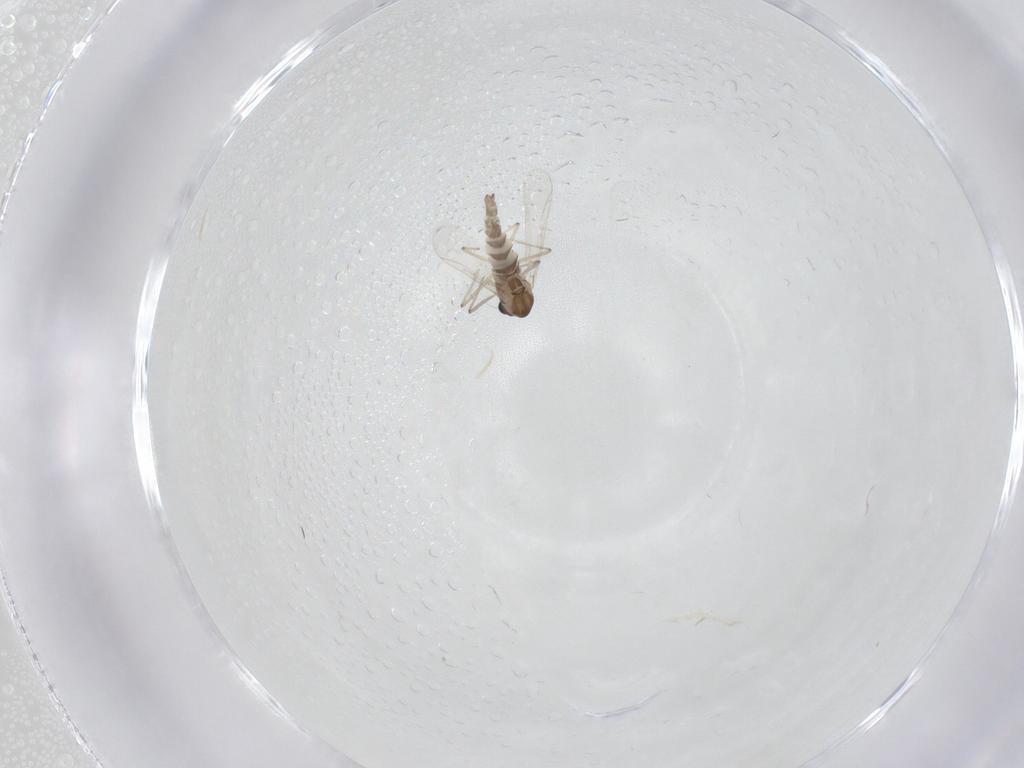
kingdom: Animalia
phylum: Arthropoda
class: Insecta
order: Diptera
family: Chironomidae
